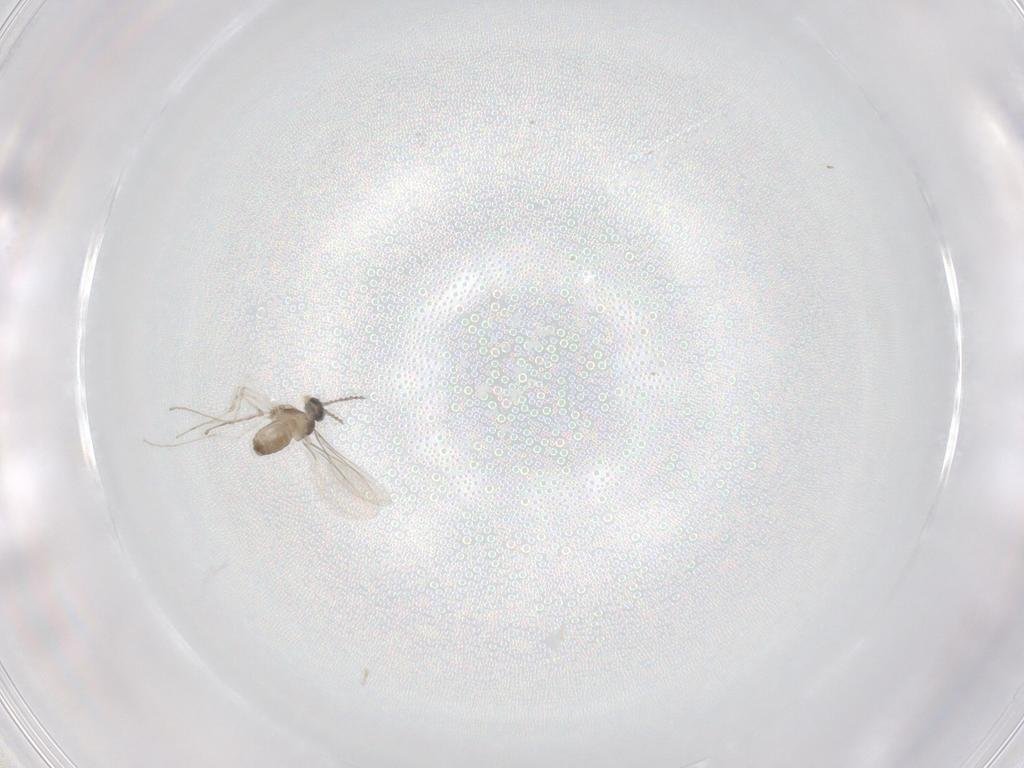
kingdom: Animalia
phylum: Arthropoda
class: Insecta
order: Diptera
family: Cecidomyiidae
